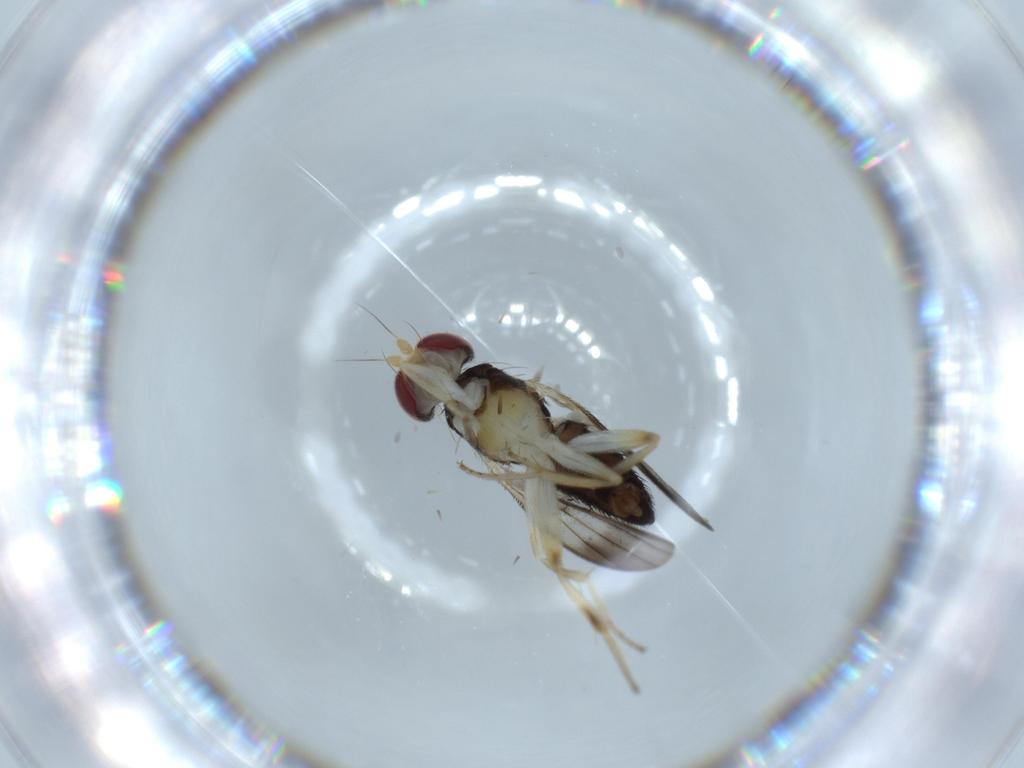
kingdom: Animalia
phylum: Arthropoda
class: Insecta
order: Diptera
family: Clusiidae
